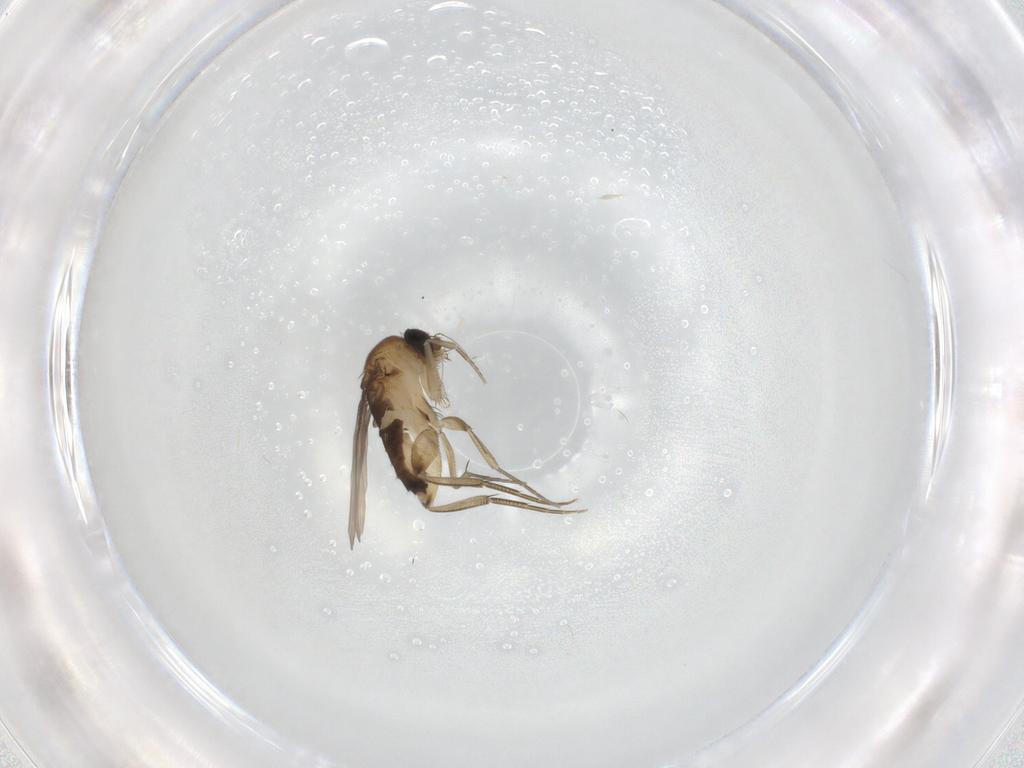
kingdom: Animalia
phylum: Arthropoda
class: Insecta
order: Diptera
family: Phoridae
